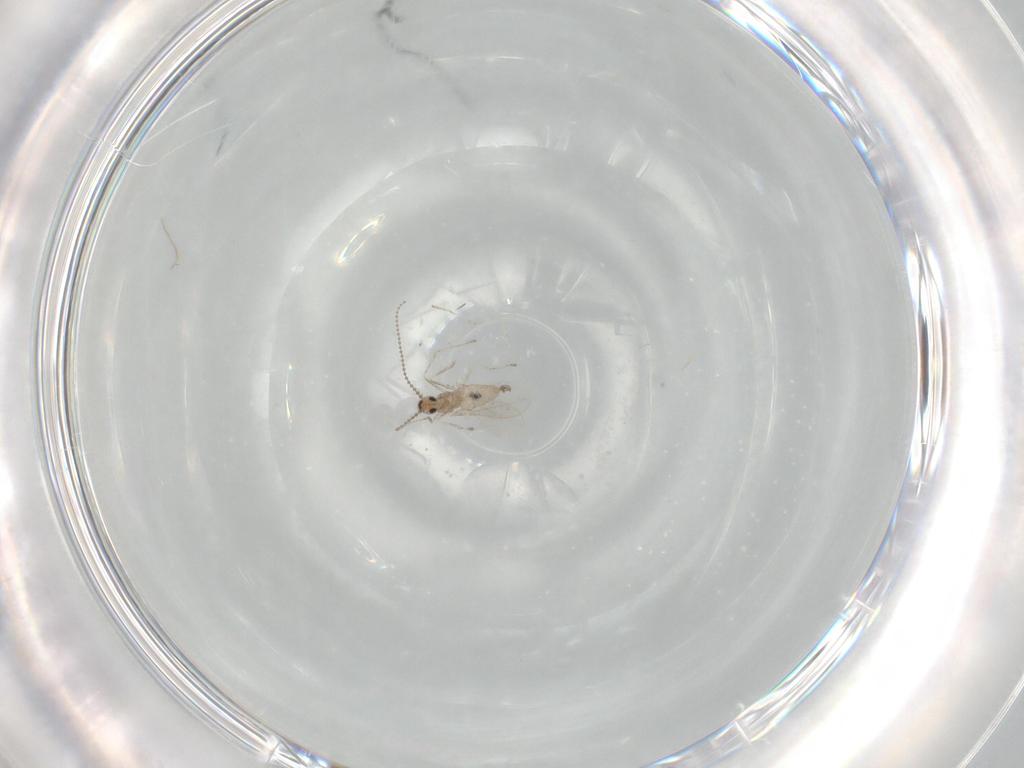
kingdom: Animalia
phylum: Arthropoda
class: Insecta
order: Diptera
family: Cecidomyiidae
